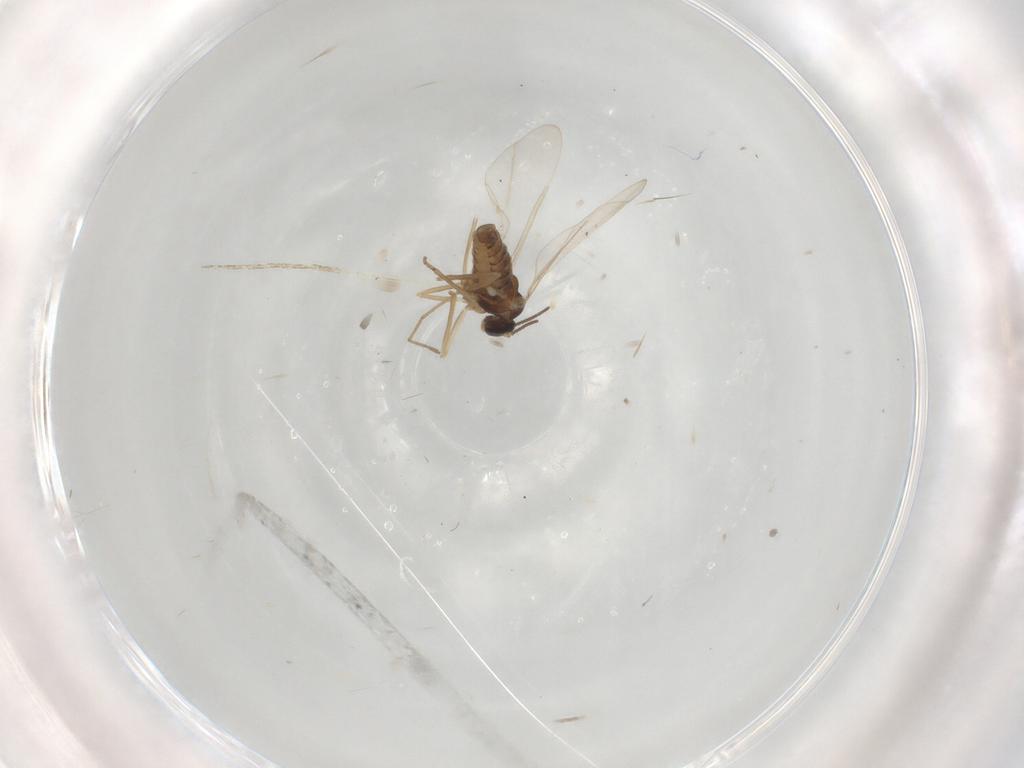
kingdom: Animalia
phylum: Arthropoda
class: Insecta
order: Diptera
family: Cecidomyiidae
